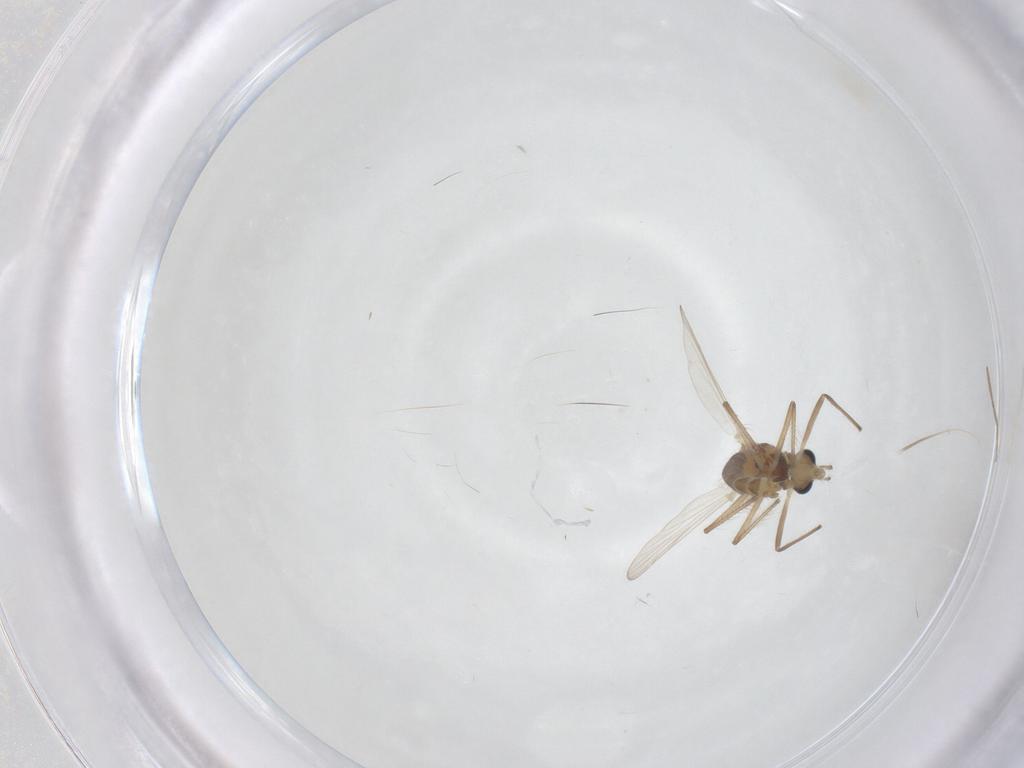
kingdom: Animalia
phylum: Arthropoda
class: Insecta
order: Diptera
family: Chironomidae
